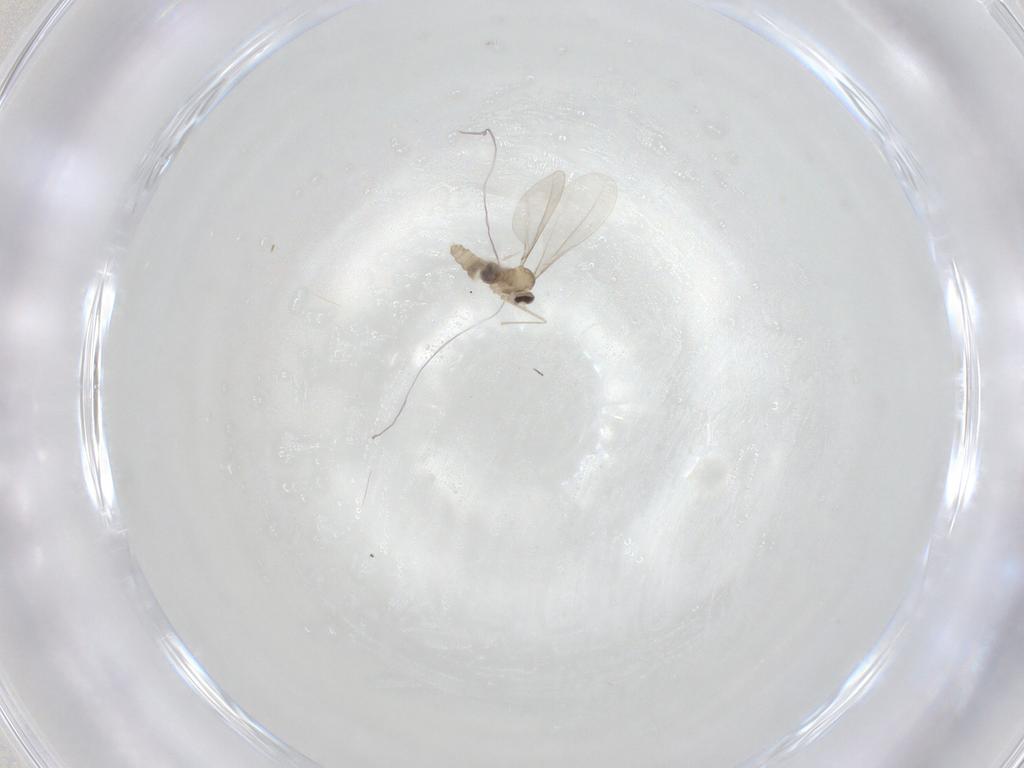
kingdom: Animalia
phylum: Arthropoda
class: Insecta
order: Diptera
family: Cecidomyiidae
